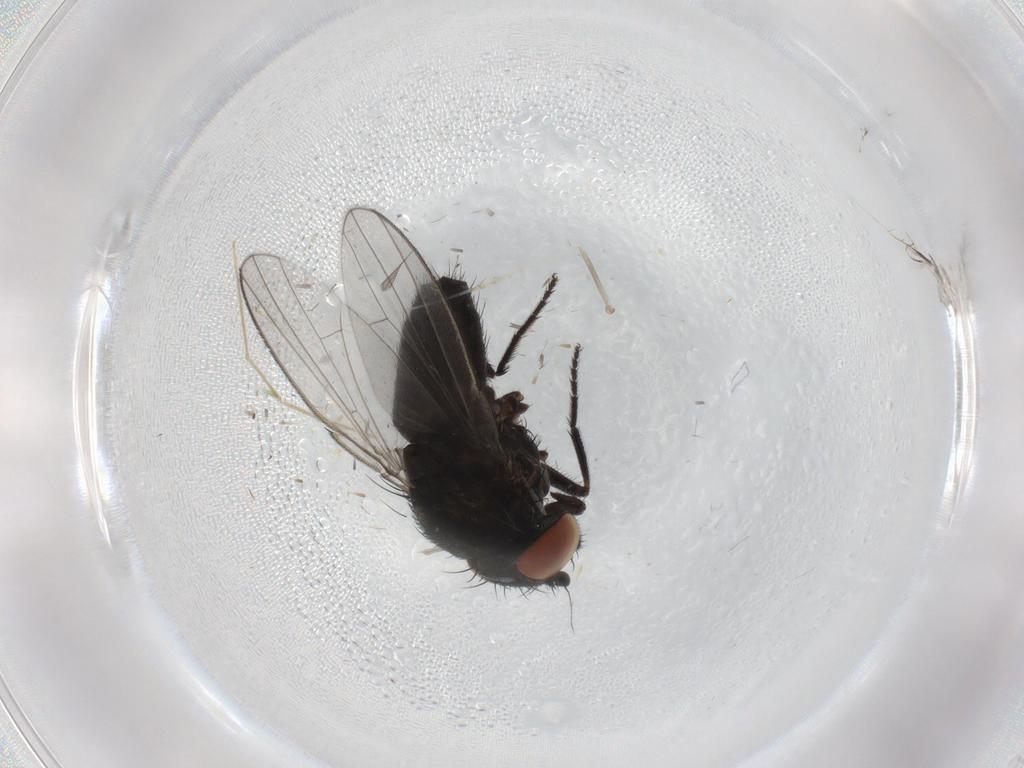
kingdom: Animalia
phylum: Arthropoda
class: Insecta
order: Diptera
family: Milichiidae
